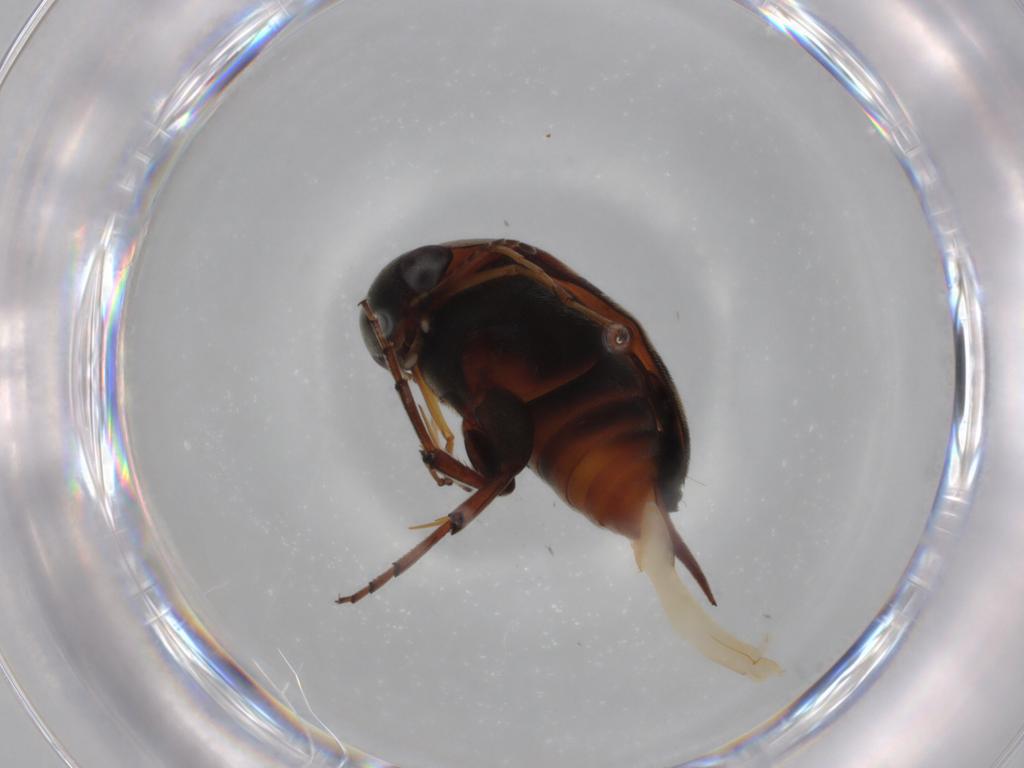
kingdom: Animalia
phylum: Arthropoda
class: Insecta
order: Coleoptera
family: Mordellidae
